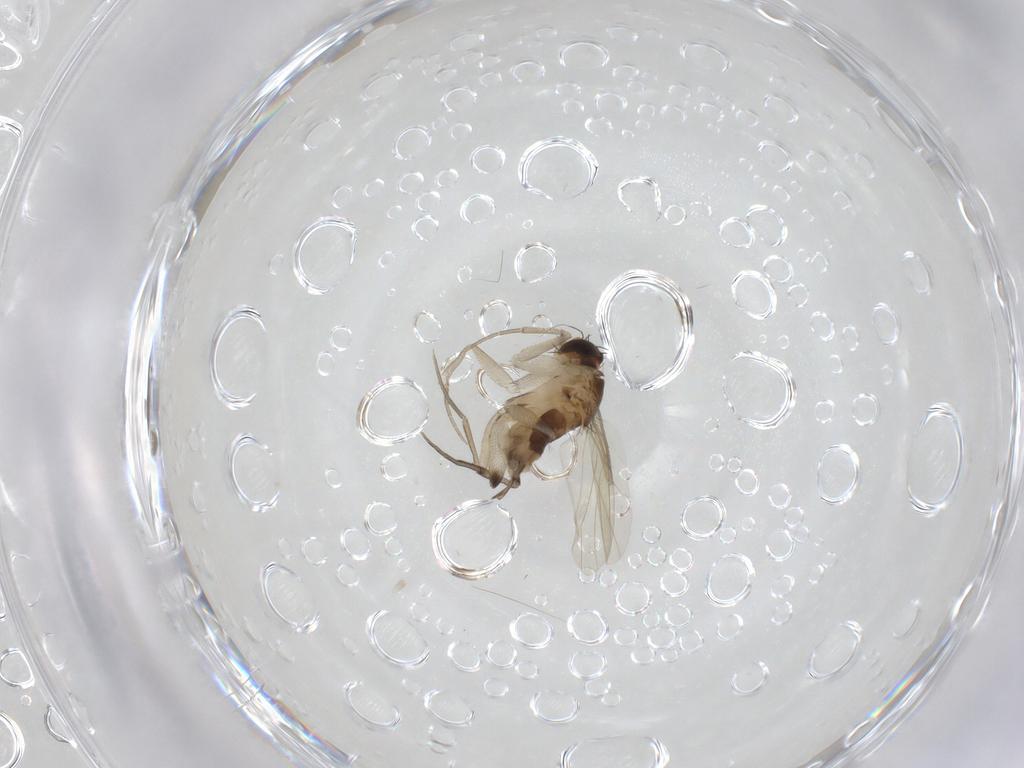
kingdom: Animalia
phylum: Arthropoda
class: Insecta
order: Diptera
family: Phoridae
